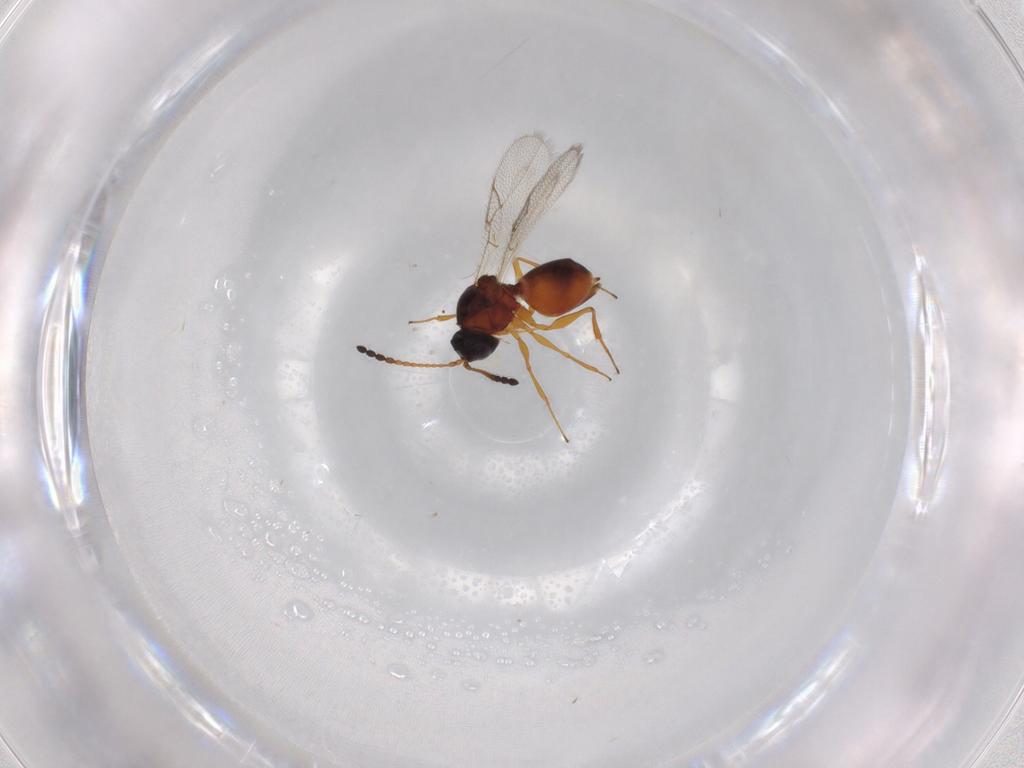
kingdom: Animalia
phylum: Arthropoda
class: Insecta
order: Hymenoptera
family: Figitidae
